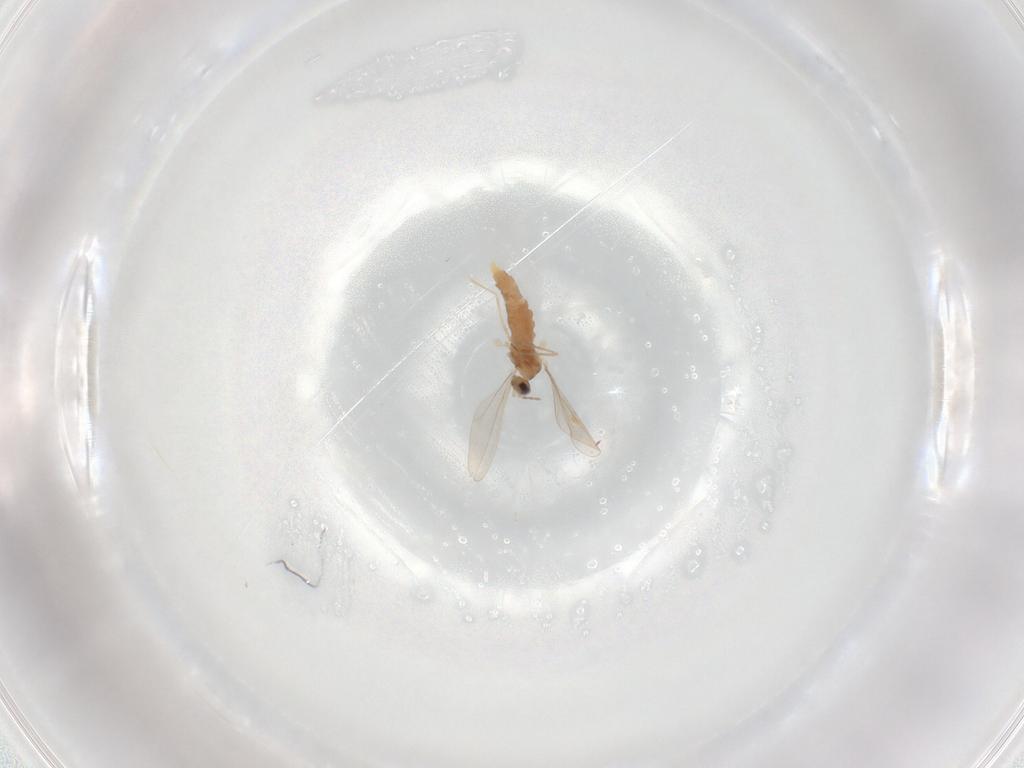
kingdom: Animalia
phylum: Arthropoda
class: Insecta
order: Diptera
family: Cecidomyiidae
